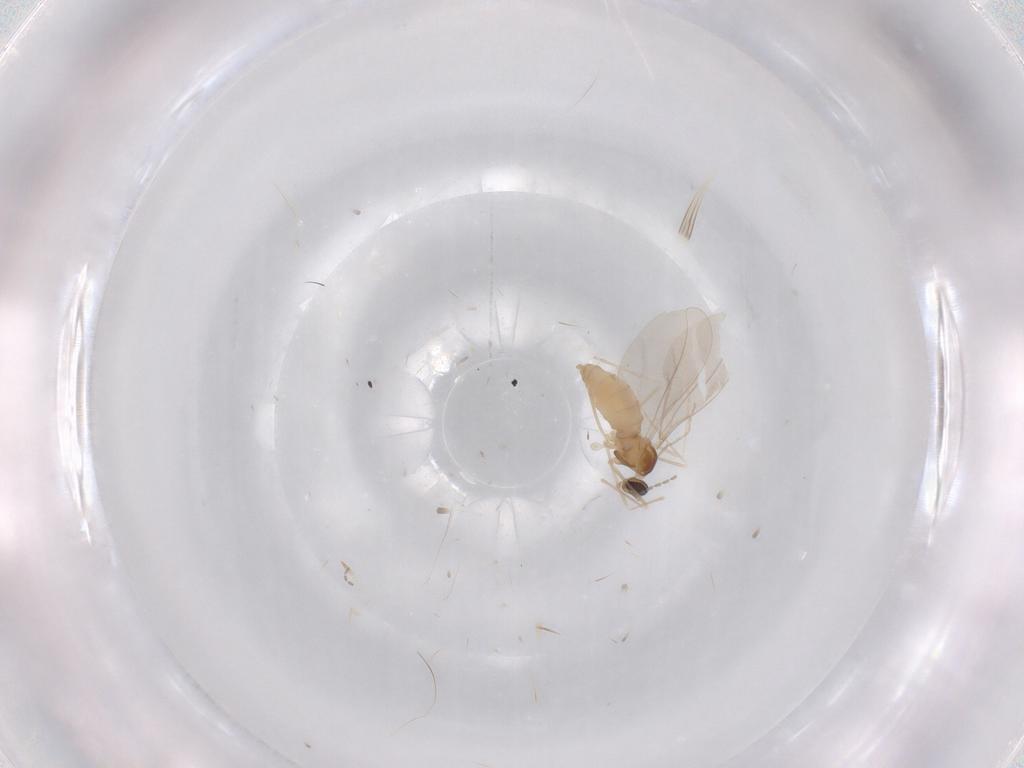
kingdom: Animalia
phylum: Arthropoda
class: Insecta
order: Diptera
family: Cecidomyiidae
